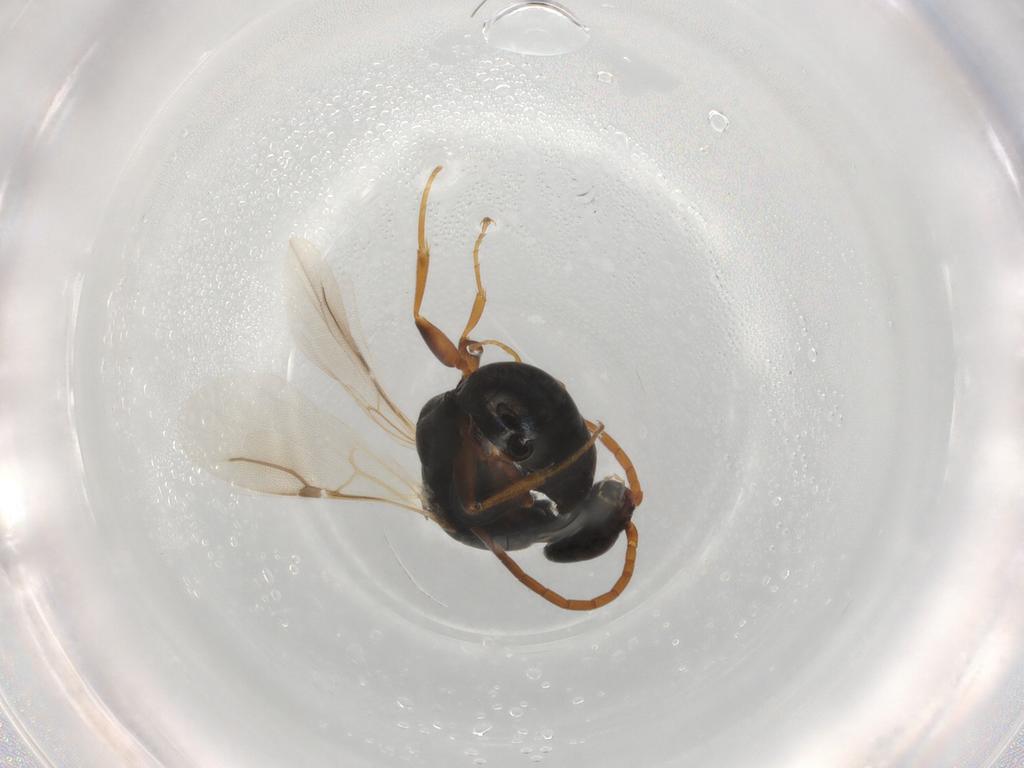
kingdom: Animalia
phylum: Arthropoda
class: Insecta
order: Hymenoptera
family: Bethylidae
